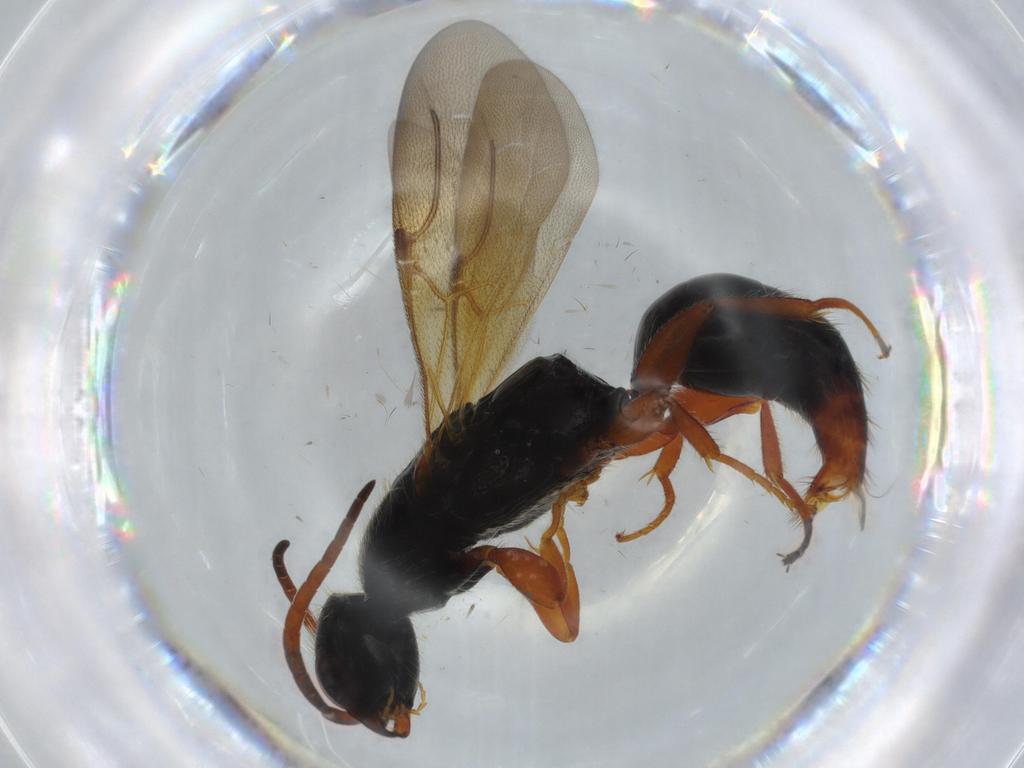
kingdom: Animalia
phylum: Arthropoda
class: Insecta
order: Hymenoptera
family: Bethylidae
